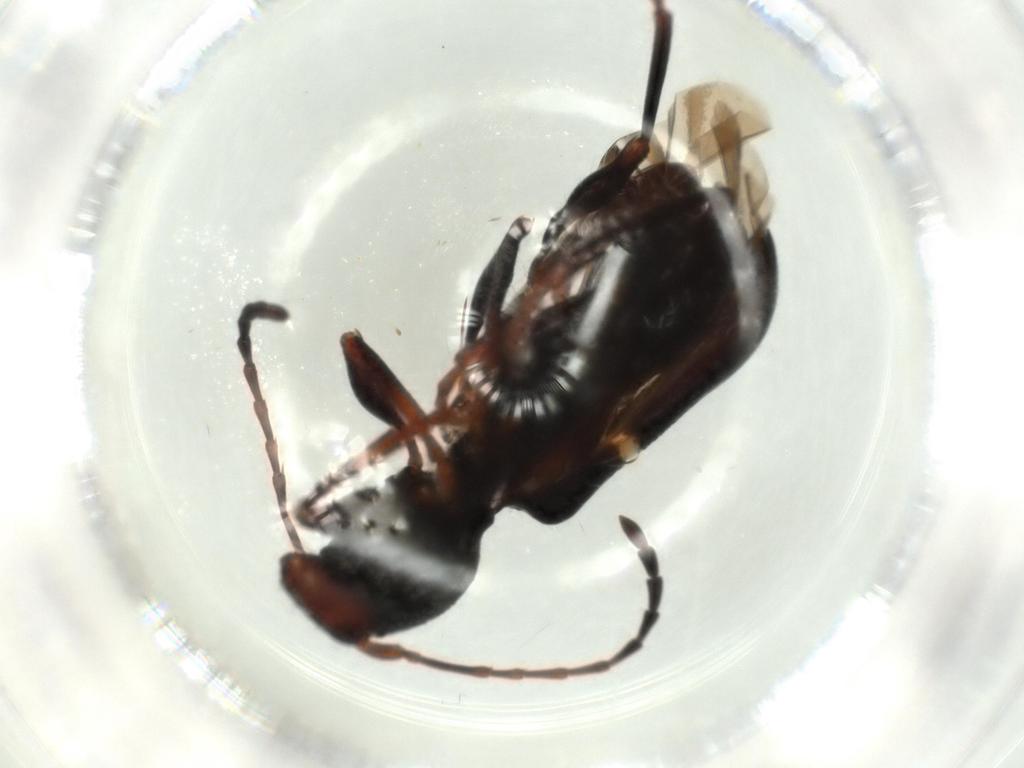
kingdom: Animalia
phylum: Arthropoda
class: Insecta
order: Coleoptera
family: Cerambycidae
